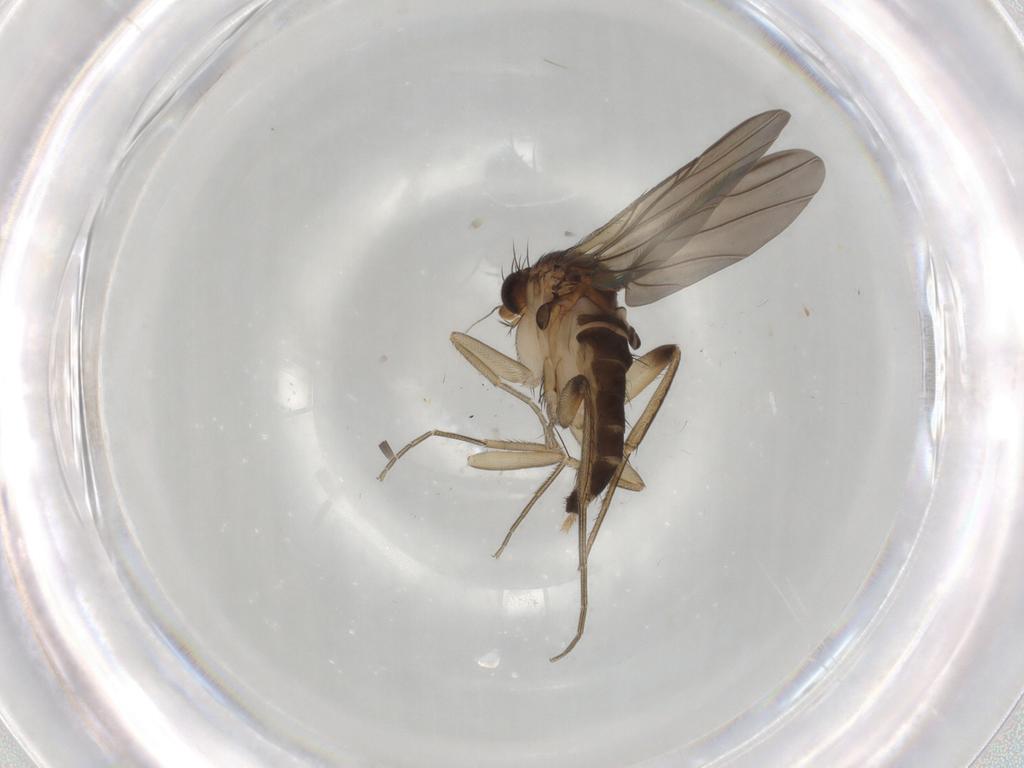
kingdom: Animalia
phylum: Arthropoda
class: Insecta
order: Diptera
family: Phoridae
